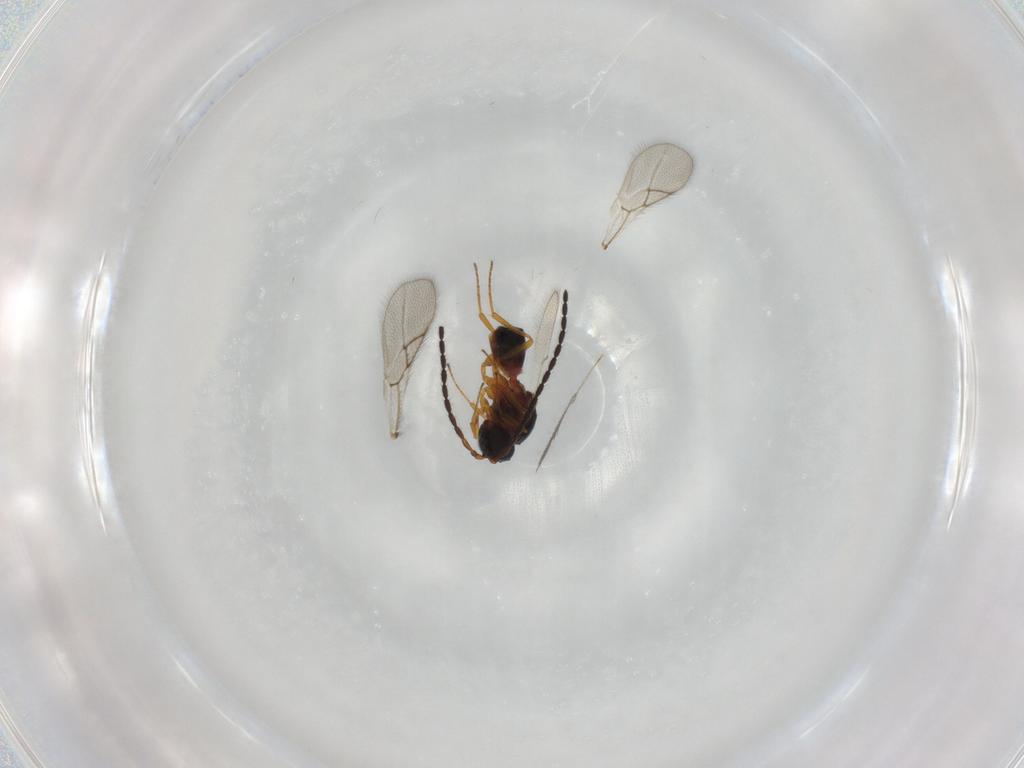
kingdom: Animalia
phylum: Arthropoda
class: Insecta
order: Hymenoptera
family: Figitidae
